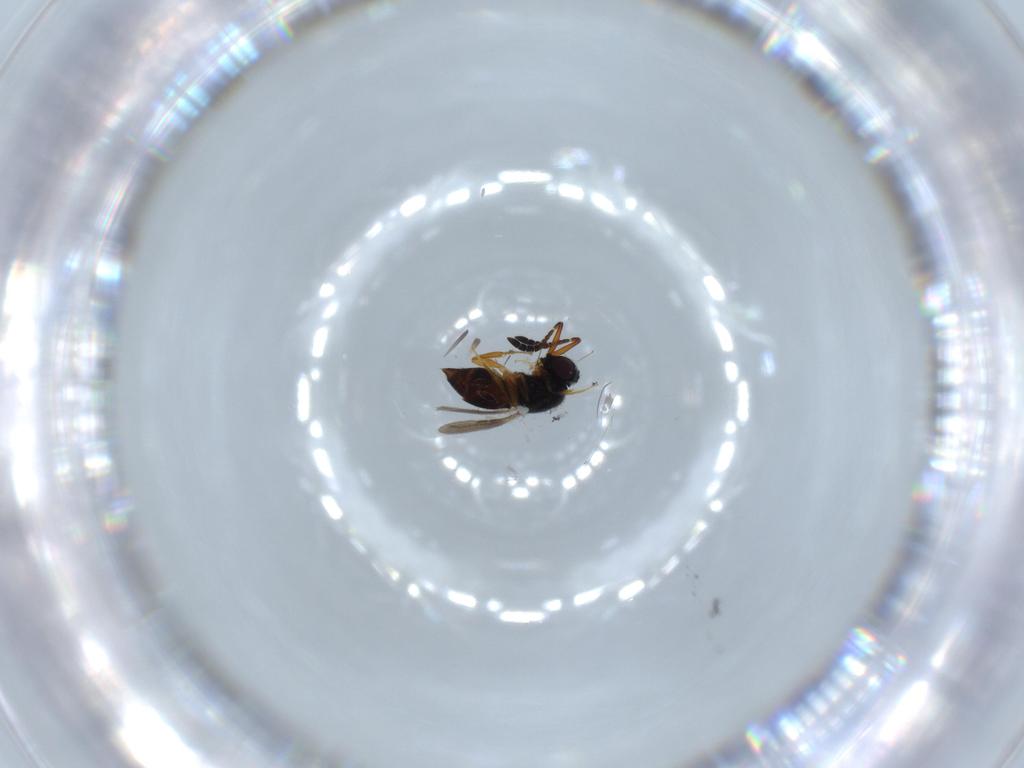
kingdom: Animalia
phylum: Arthropoda
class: Insecta
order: Hymenoptera
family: Ceraphronidae
